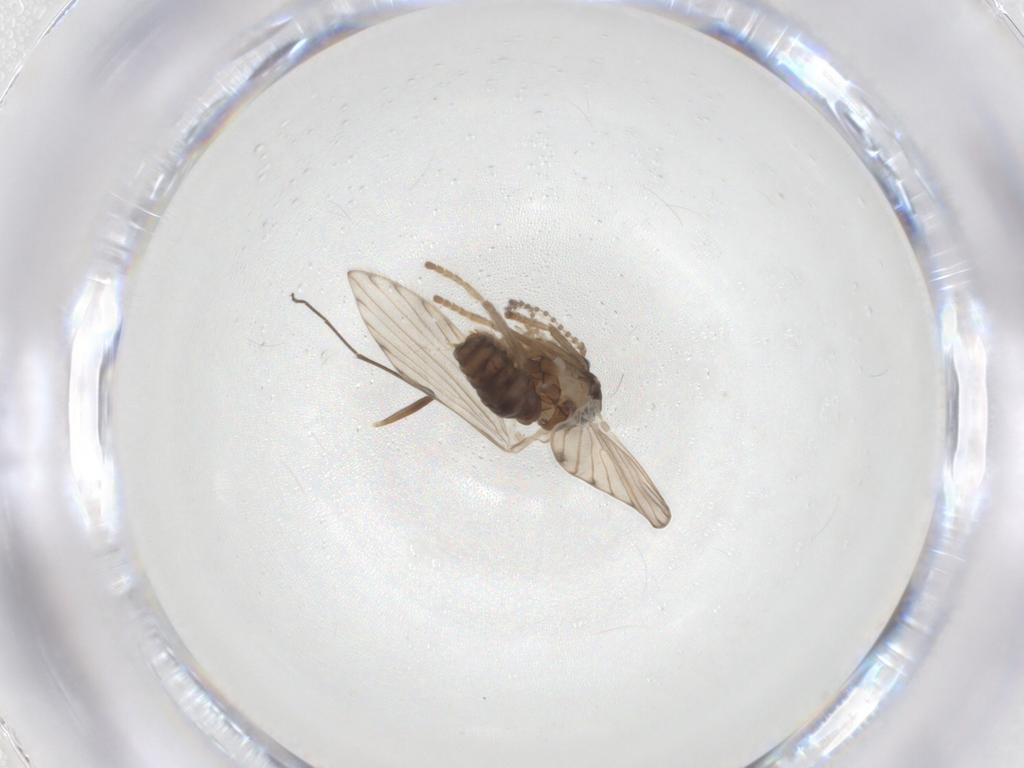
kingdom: Animalia
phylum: Arthropoda
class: Insecta
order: Diptera
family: Psychodidae
